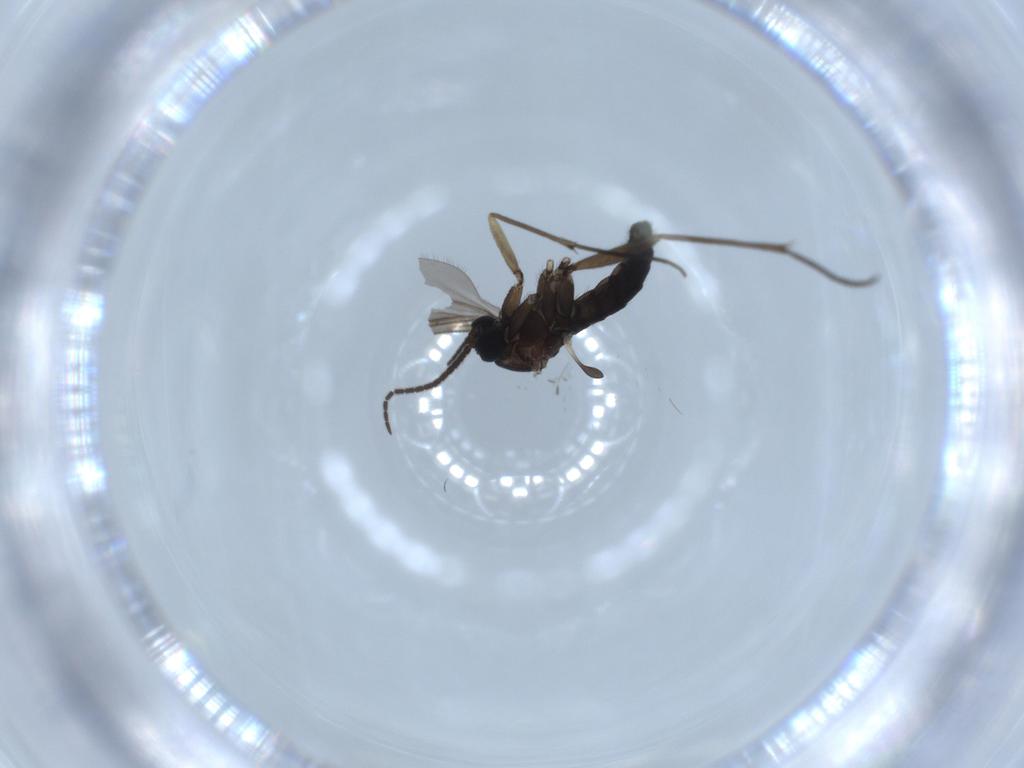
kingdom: Animalia
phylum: Arthropoda
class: Insecta
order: Diptera
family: Sciaridae
